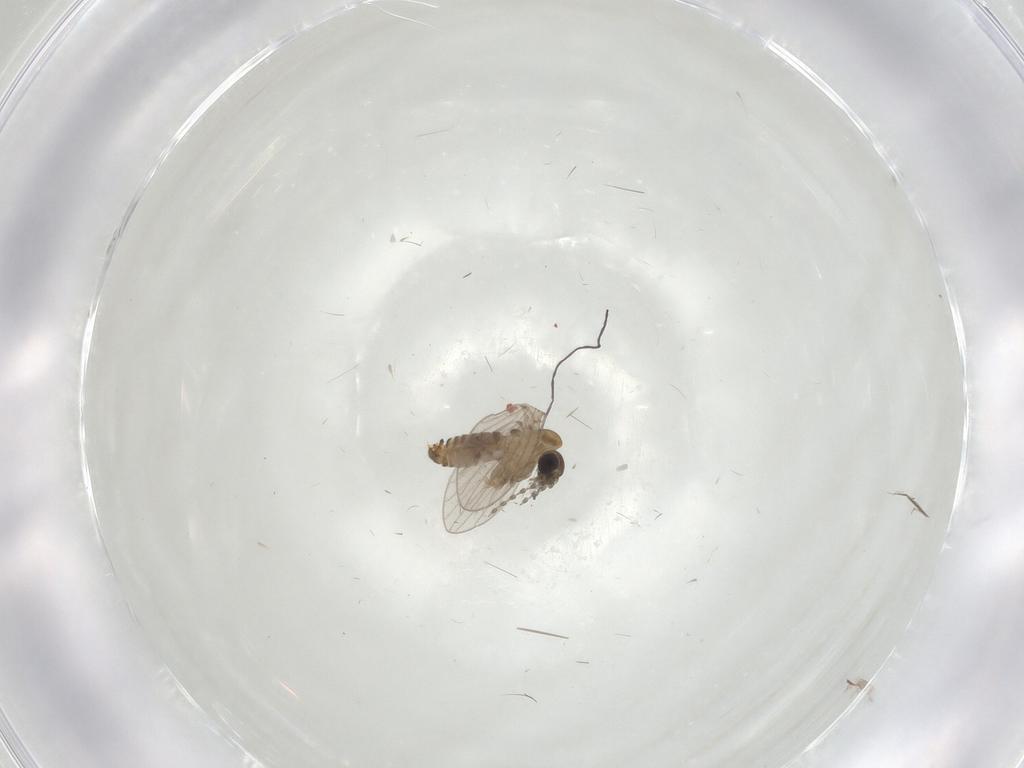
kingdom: Animalia
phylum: Arthropoda
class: Insecta
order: Diptera
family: Psychodidae
